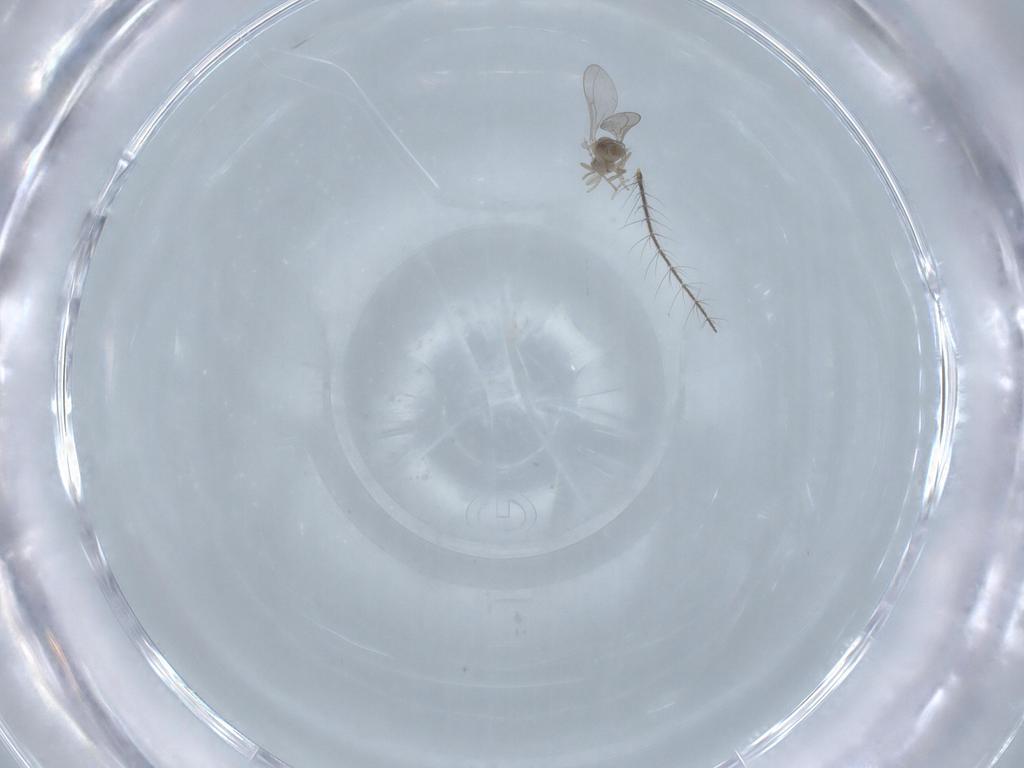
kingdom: Animalia
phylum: Arthropoda
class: Insecta
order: Diptera
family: Culicidae
